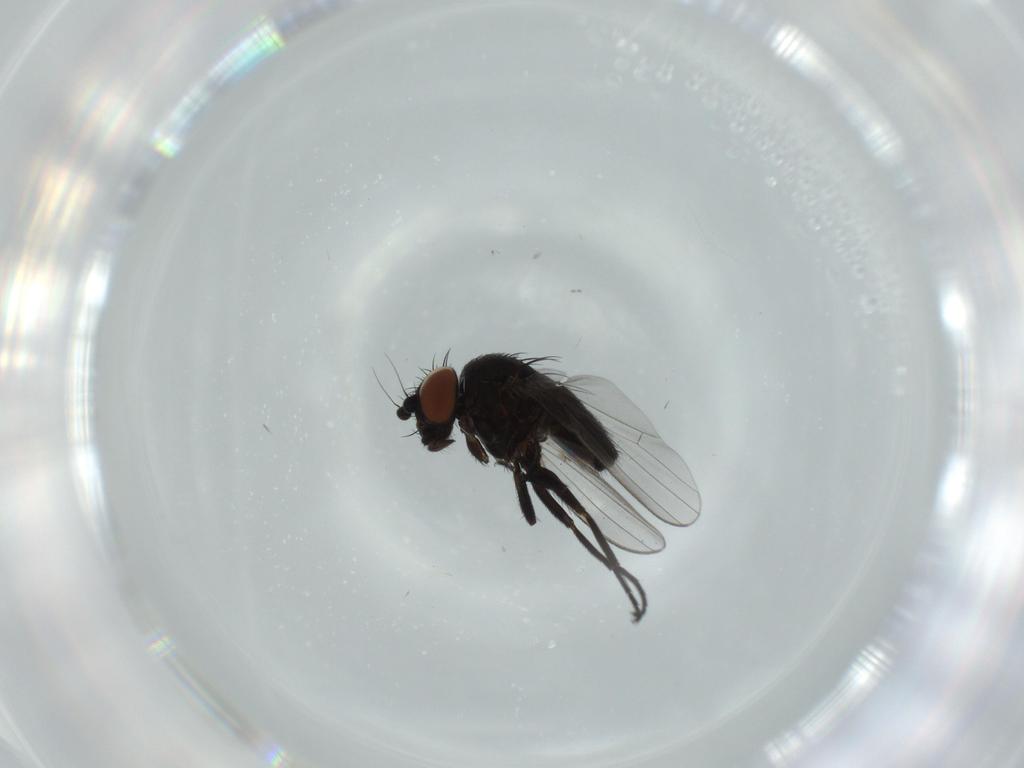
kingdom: Animalia
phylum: Arthropoda
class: Insecta
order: Diptera
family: Milichiidae
